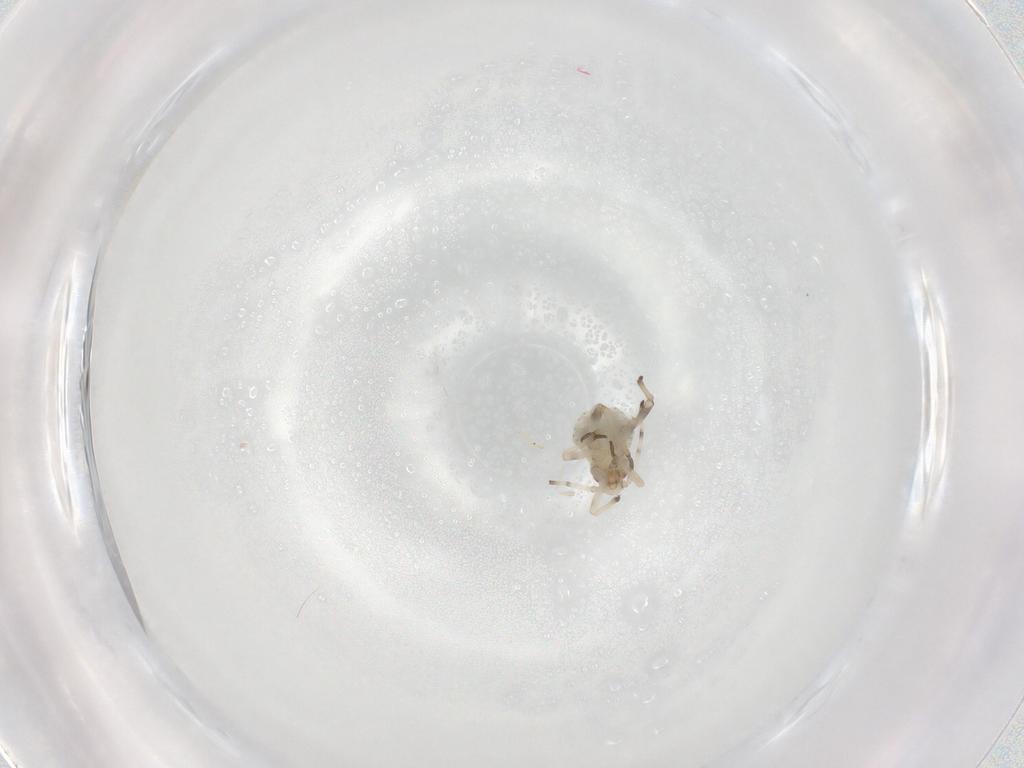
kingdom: Animalia
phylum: Arthropoda
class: Insecta
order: Hemiptera
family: Aphididae
